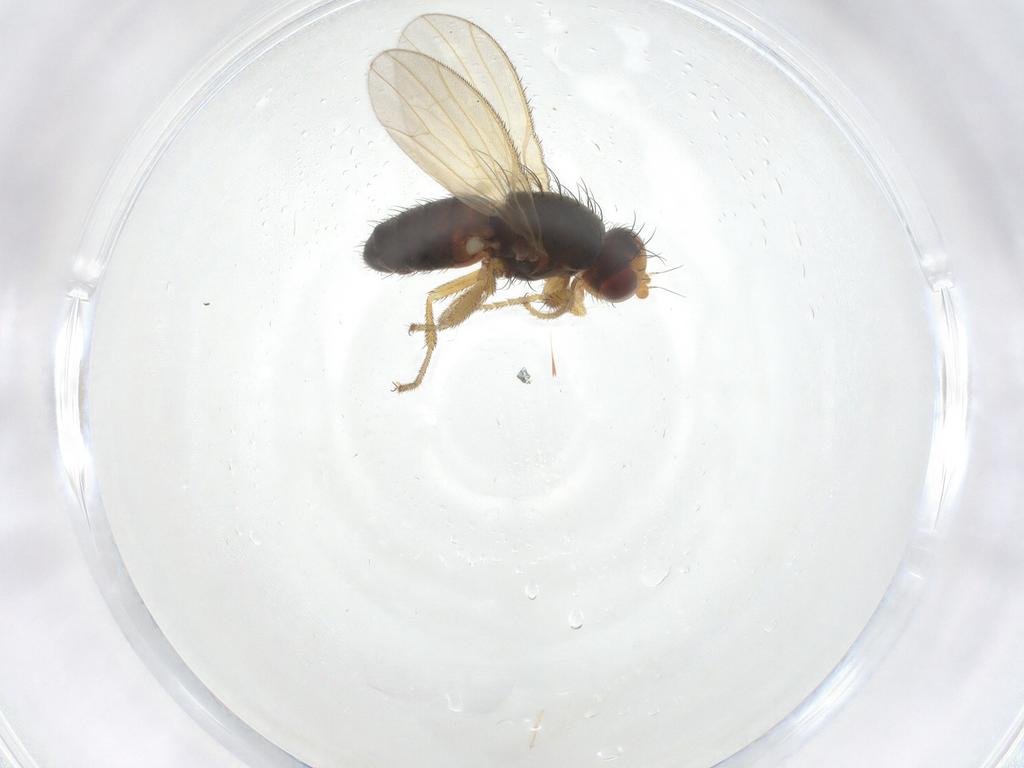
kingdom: Animalia
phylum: Arthropoda
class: Insecta
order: Diptera
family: Heleomyzidae
